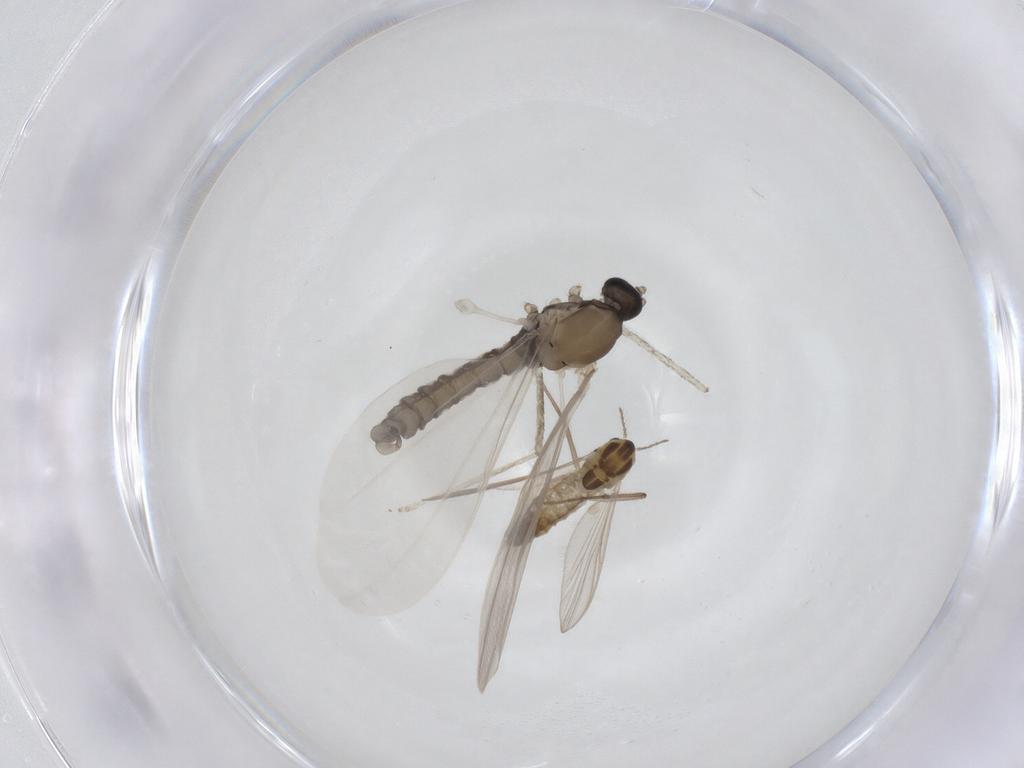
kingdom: Animalia
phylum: Arthropoda
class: Insecta
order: Diptera
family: Chironomidae
